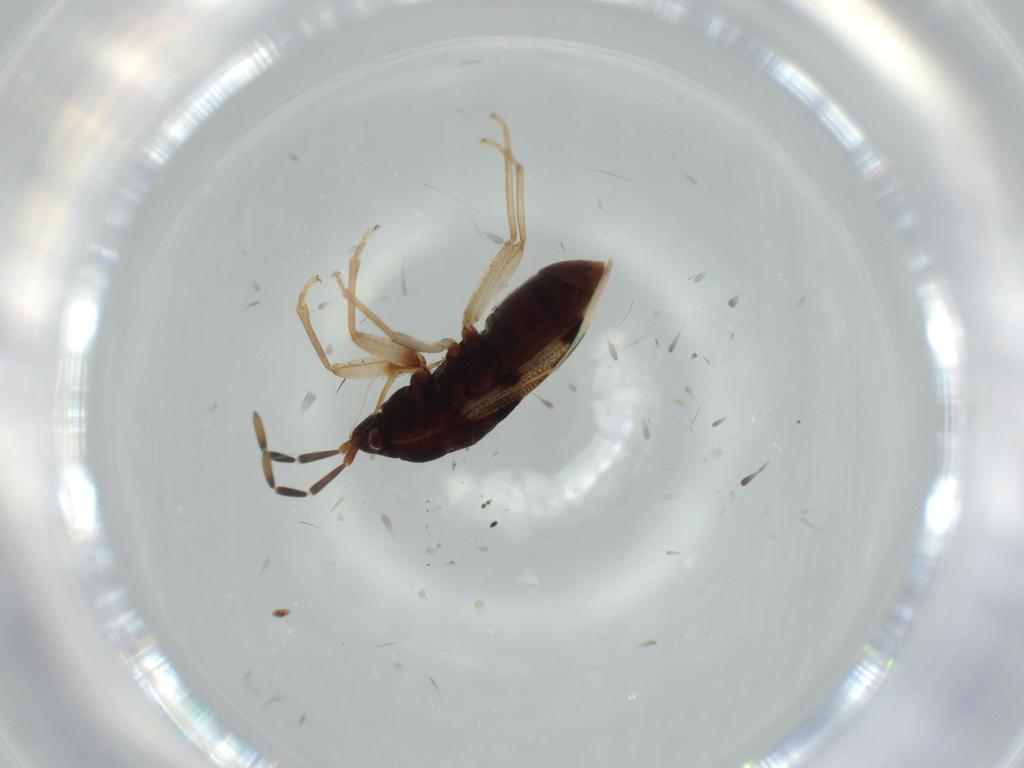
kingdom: Animalia
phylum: Arthropoda
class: Insecta
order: Hemiptera
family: Rhyparochromidae
